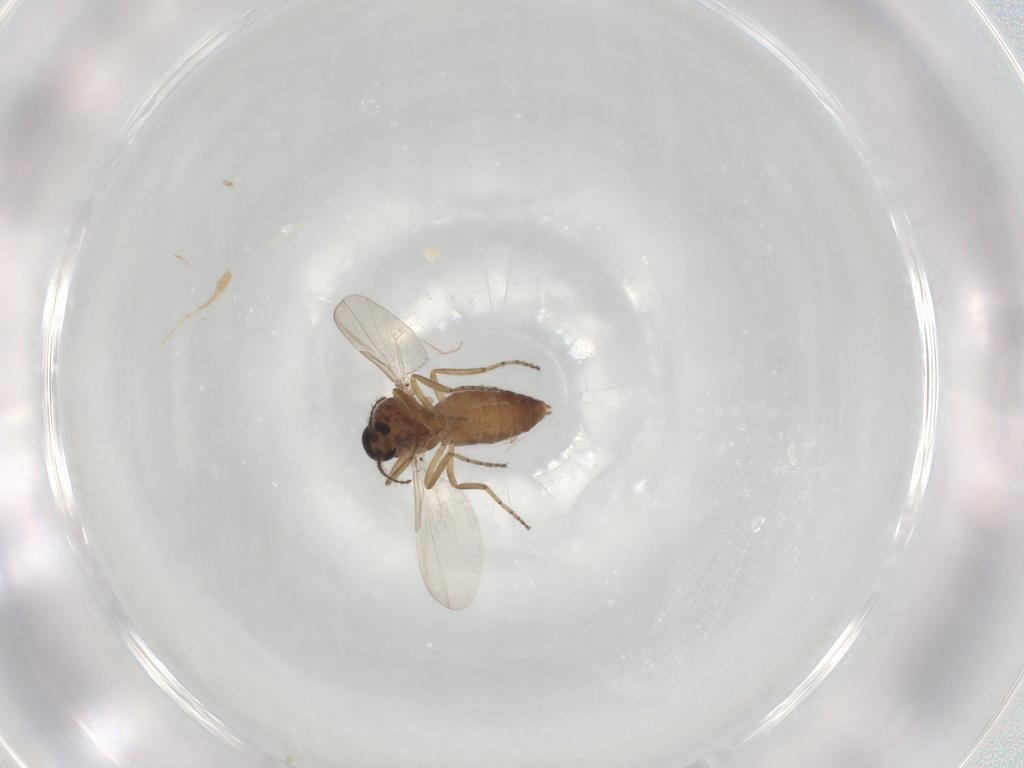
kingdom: Animalia
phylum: Arthropoda
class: Insecta
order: Diptera
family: Ceratopogonidae
